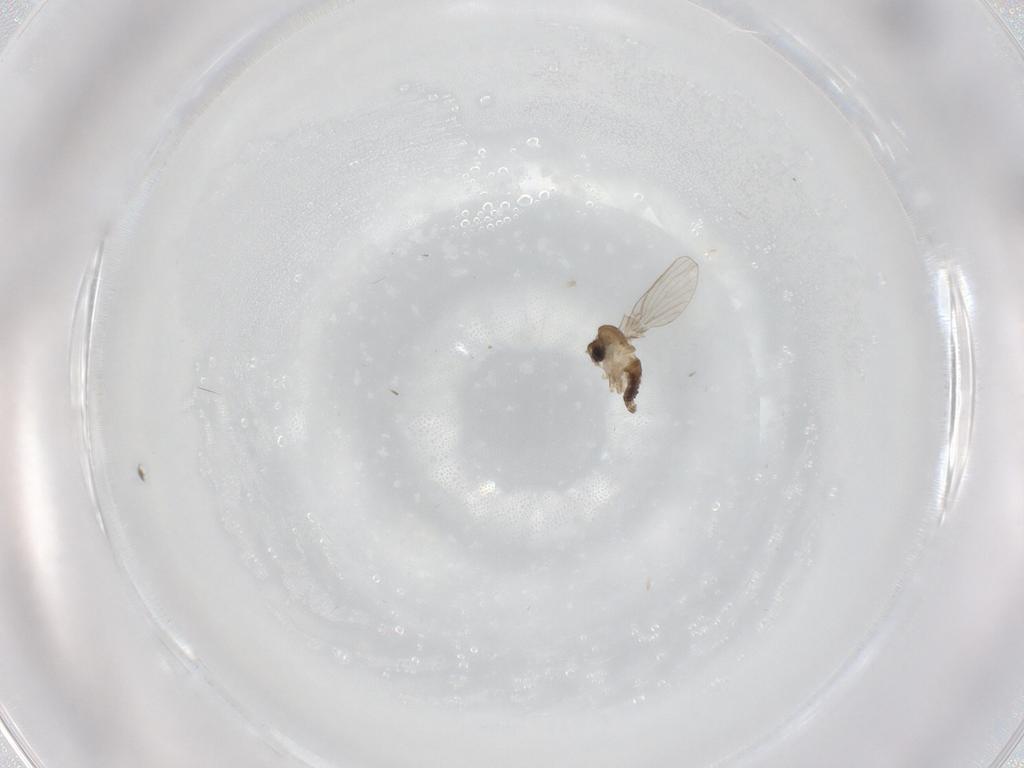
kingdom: Animalia
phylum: Arthropoda
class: Insecta
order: Diptera
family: Psychodidae
